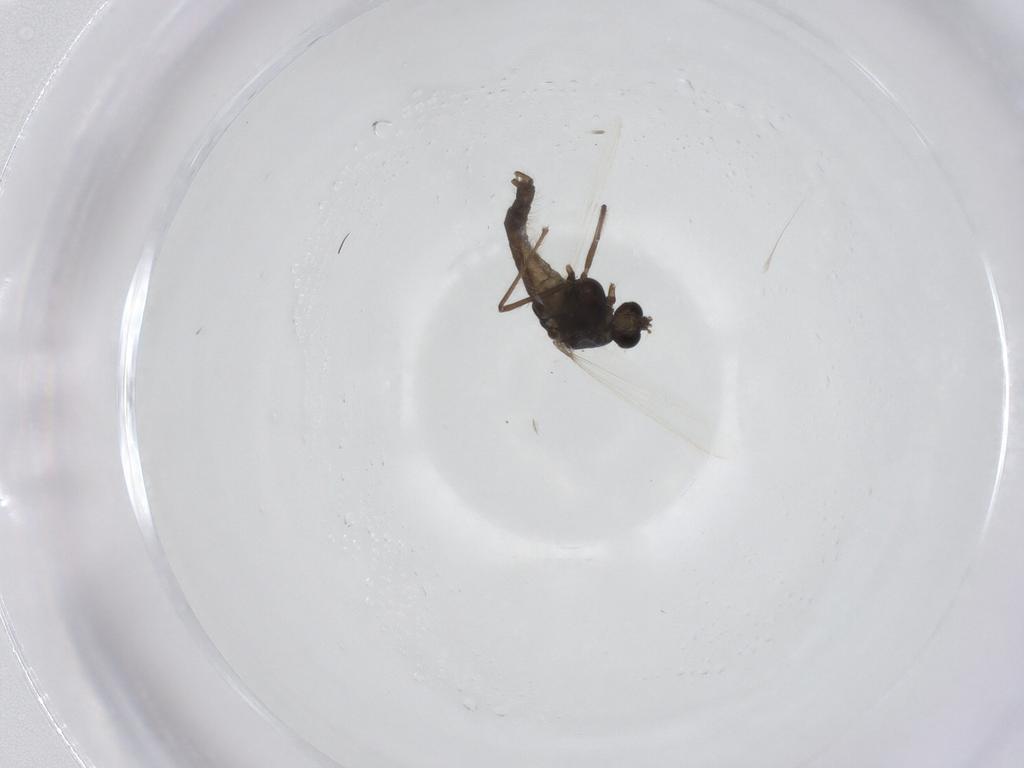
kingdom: Animalia
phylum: Arthropoda
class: Insecta
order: Diptera
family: Chironomidae
